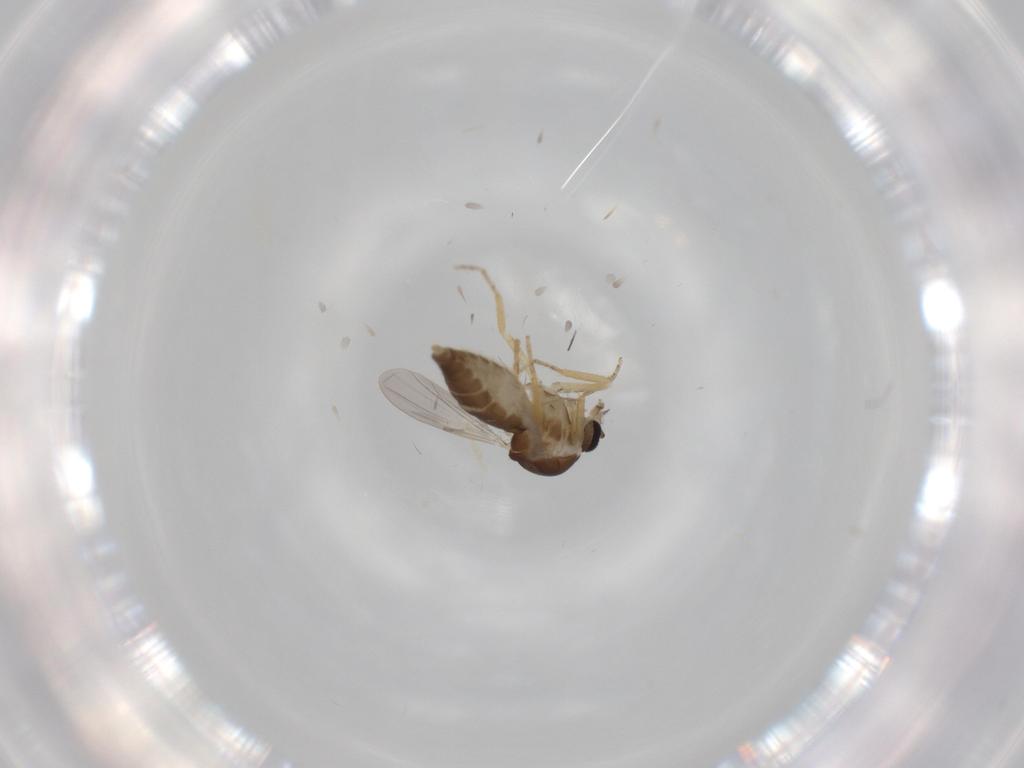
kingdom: Animalia
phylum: Arthropoda
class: Insecta
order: Diptera
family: Ceratopogonidae
